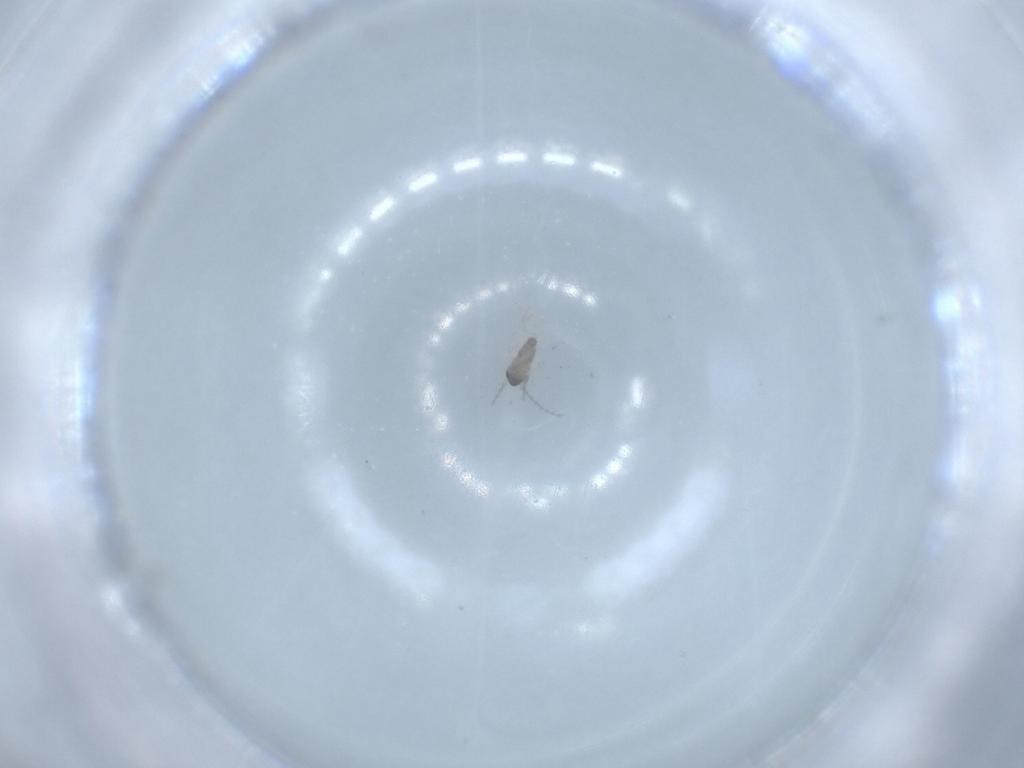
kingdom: Animalia
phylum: Arthropoda
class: Insecta
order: Diptera
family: Cecidomyiidae
